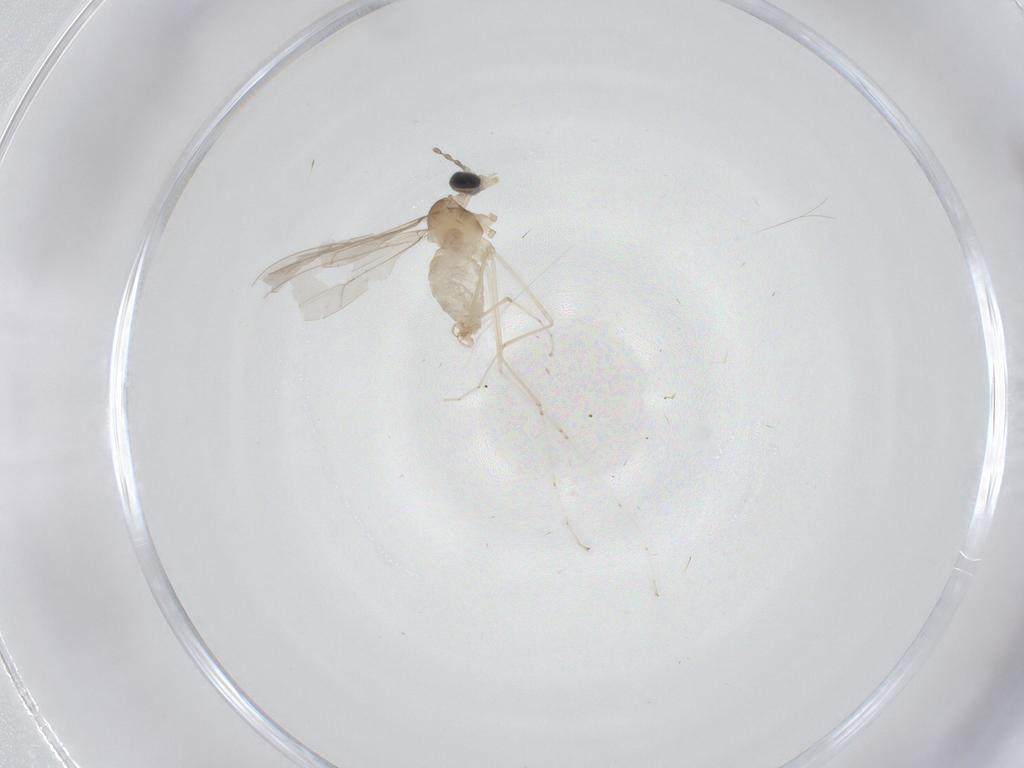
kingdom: Animalia
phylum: Arthropoda
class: Insecta
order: Diptera
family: Cecidomyiidae
